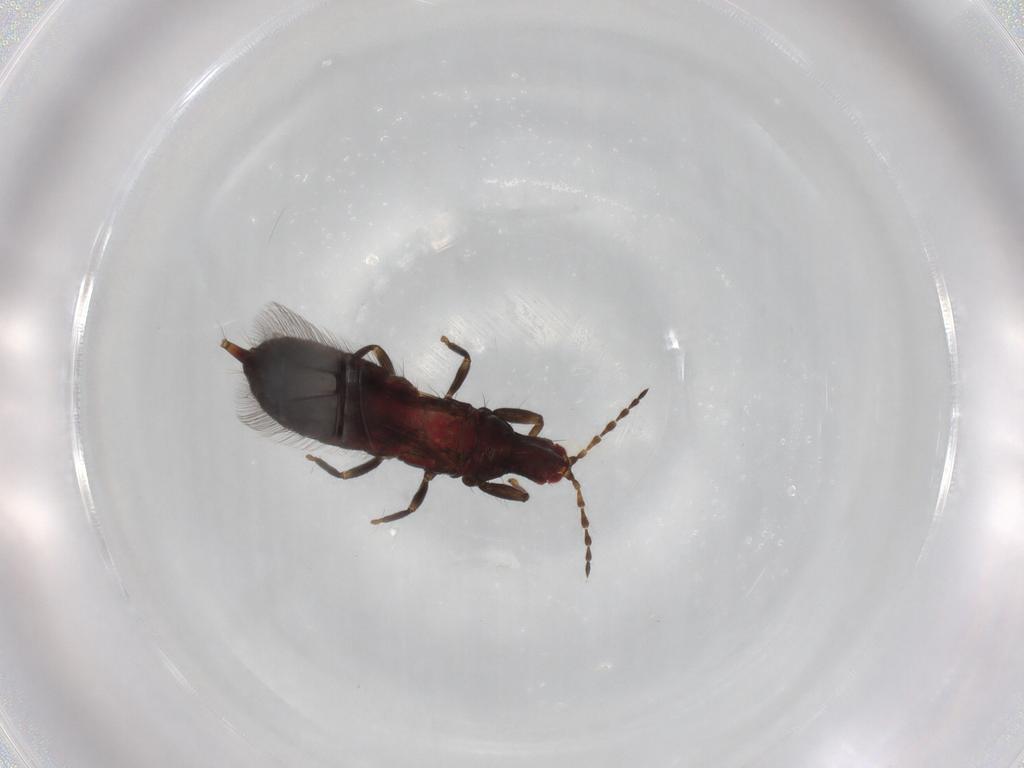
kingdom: Animalia
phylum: Arthropoda
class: Insecta
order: Thysanoptera
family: Phlaeothripidae
